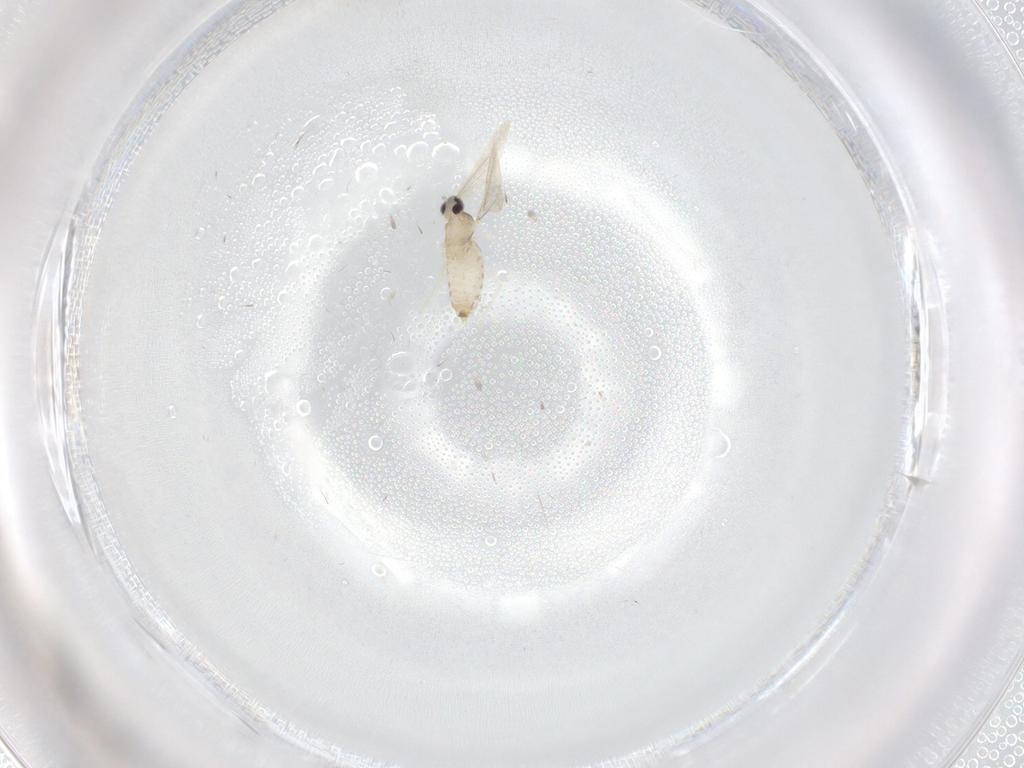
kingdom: Animalia
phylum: Arthropoda
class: Insecta
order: Diptera
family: Cecidomyiidae
